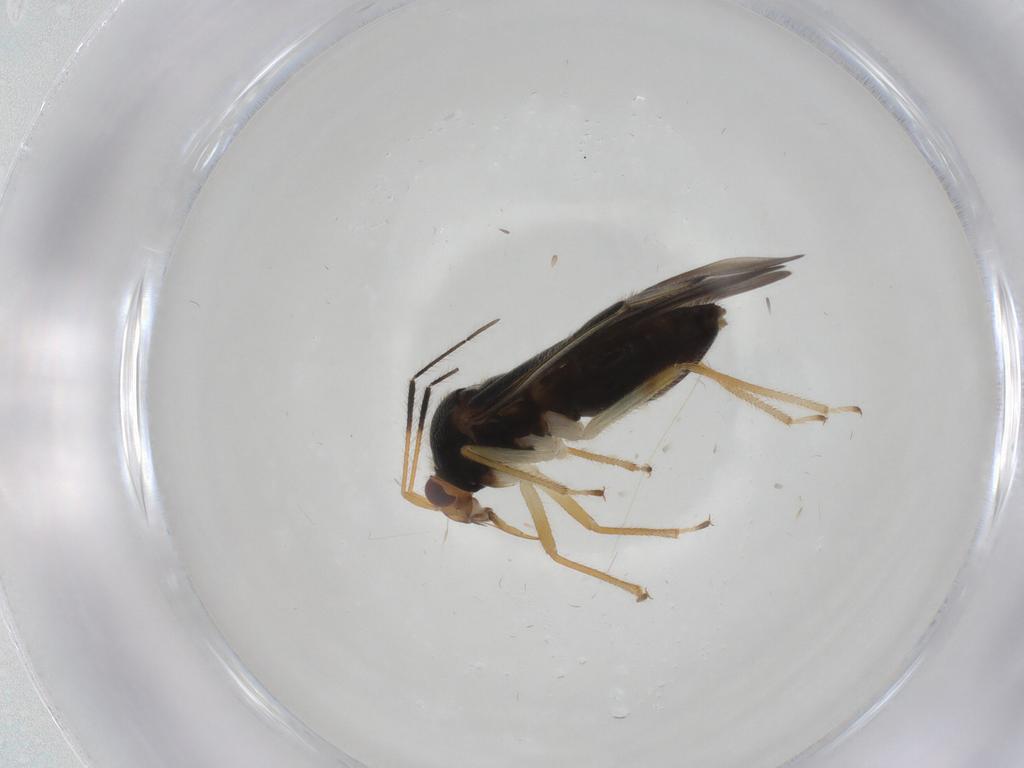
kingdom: Animalia
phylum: Arthropoda
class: Insecta
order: Hemiptera
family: Miridae
